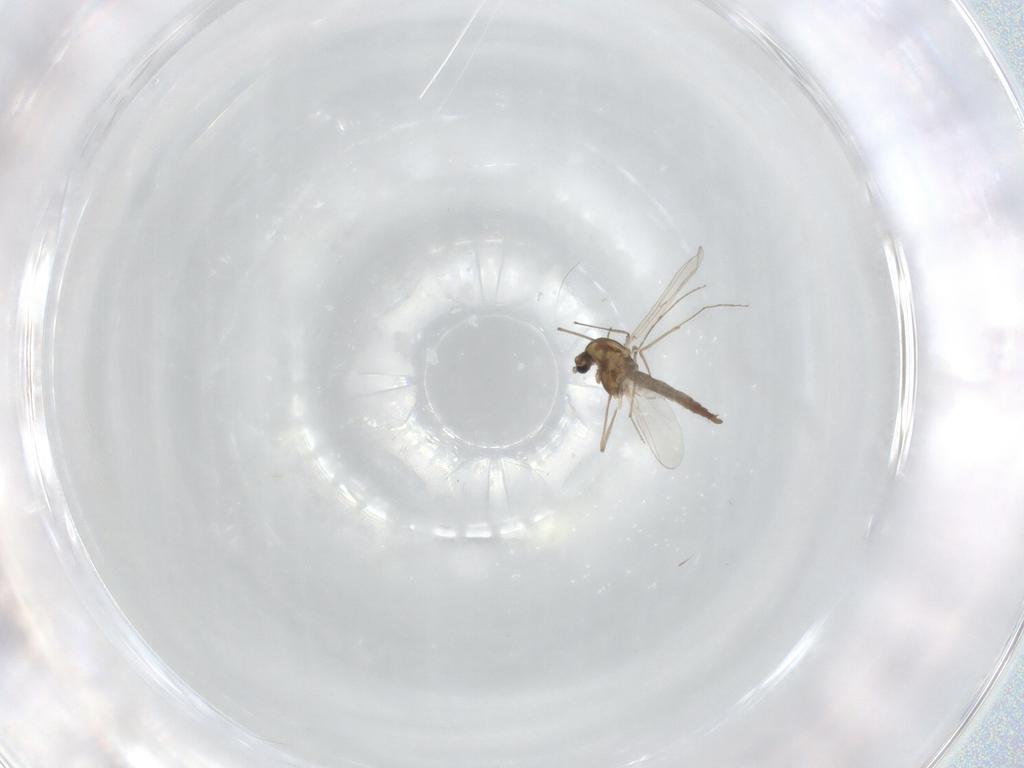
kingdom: Animalia
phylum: Arthropoda
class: Insecta
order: Diptera
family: Chironomidae
